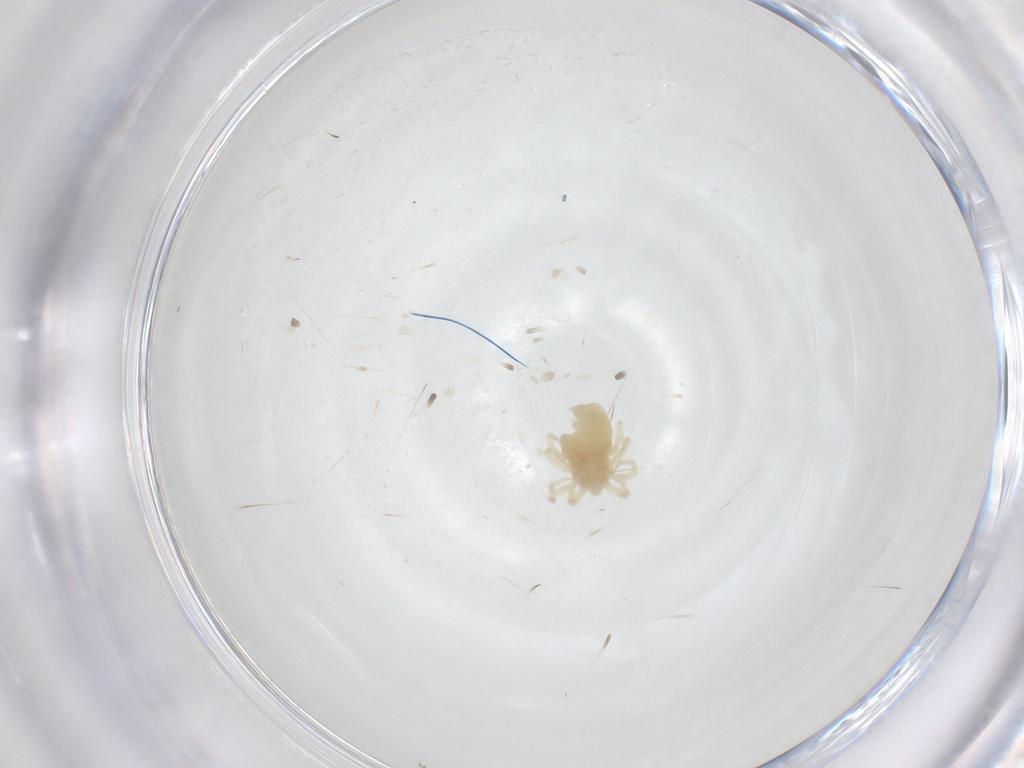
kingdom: Animalia
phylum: Arthropoda
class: Arachnida
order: Trombidiformes
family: Anystidae
